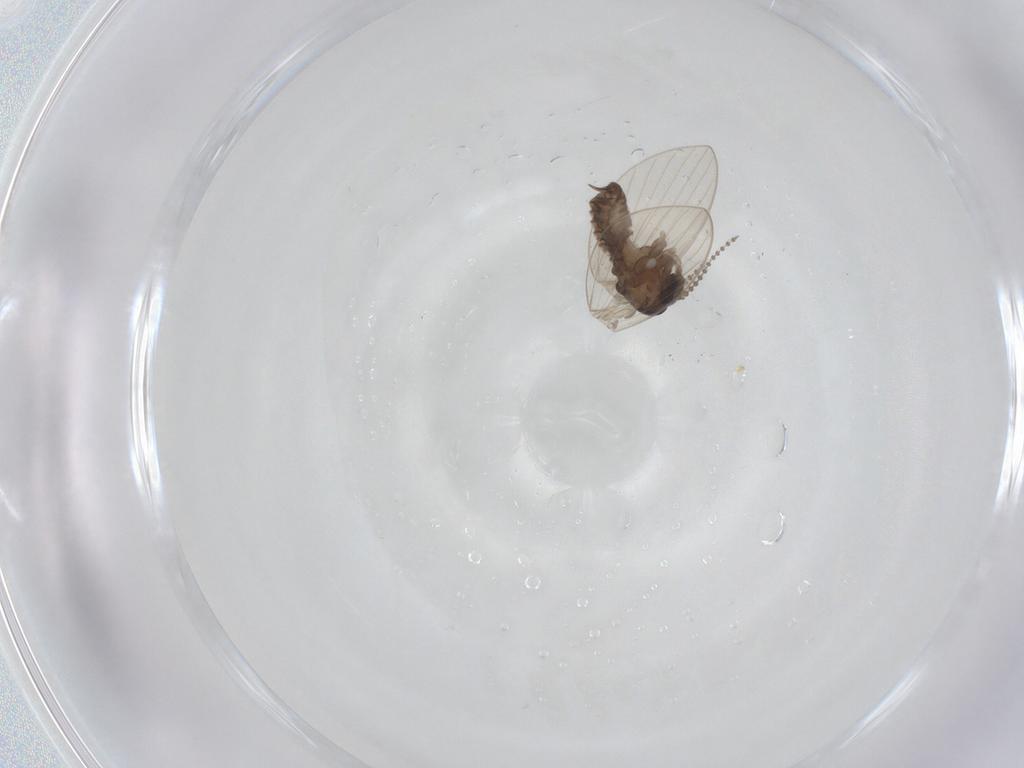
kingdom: Animalia
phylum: Arthropoda
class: Insecta
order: Diptera
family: Psychodidae
